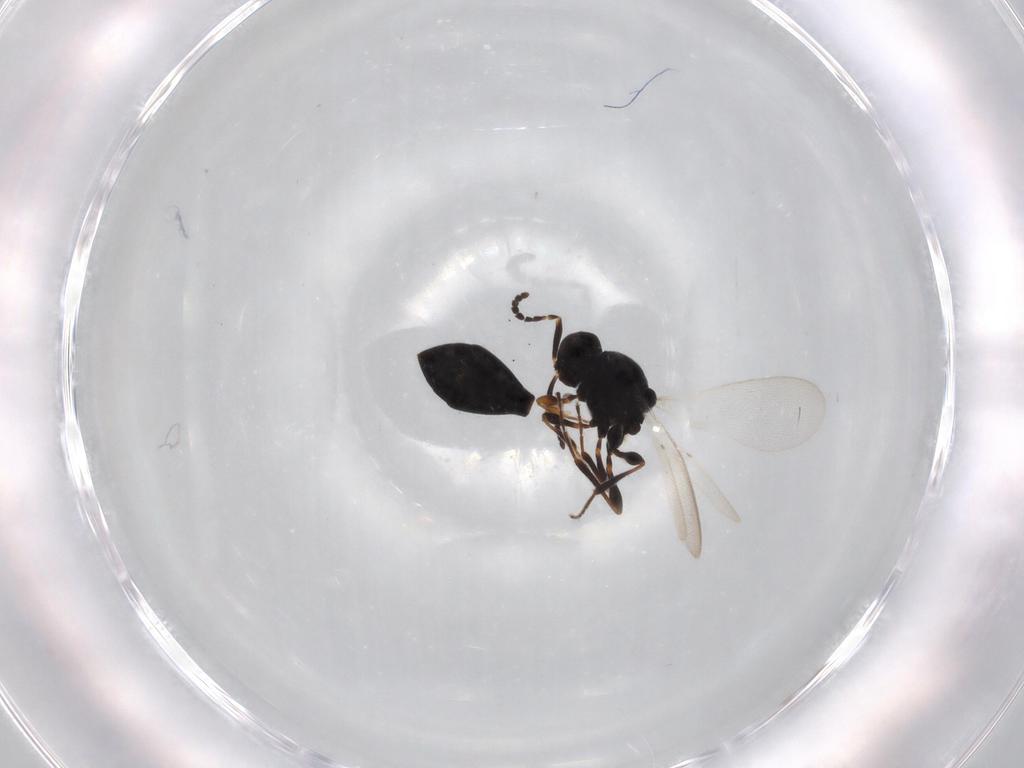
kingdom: Animalia
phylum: Arthropoda
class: Insecta
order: Diptera
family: Mythicomyiidae
